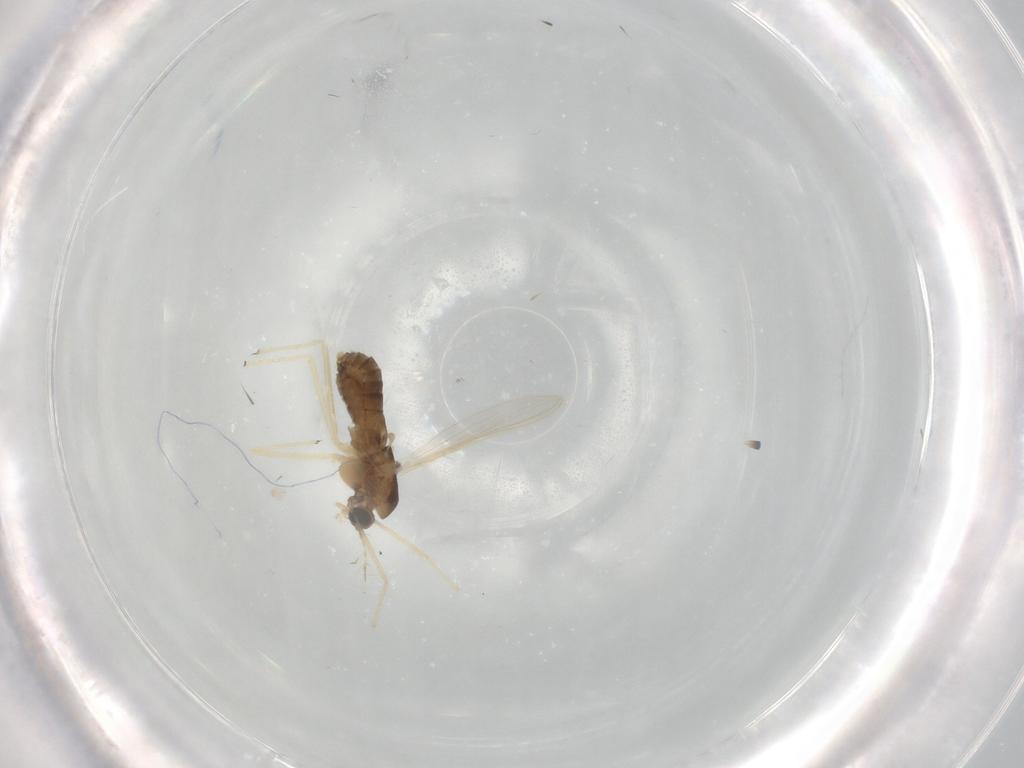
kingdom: Animalia
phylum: Arthropoda
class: Insecta
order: Diptera
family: Chironomidae
